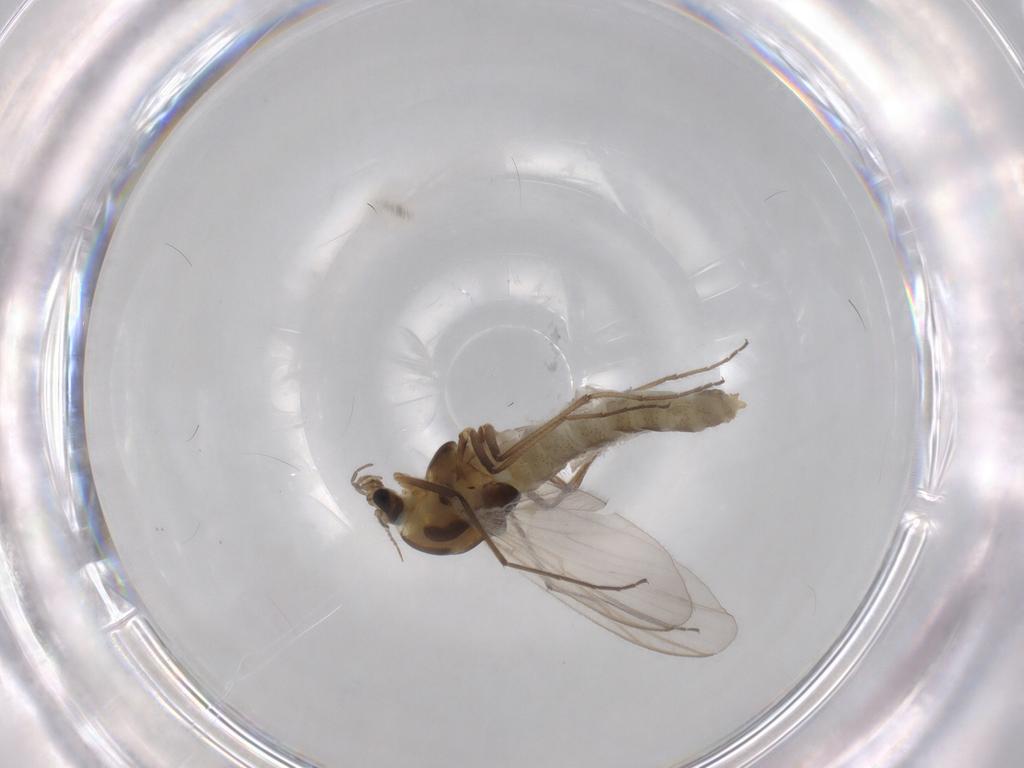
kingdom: Animalia
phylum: Arthropoda
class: Insecta
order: Diptera
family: Chironomidae
